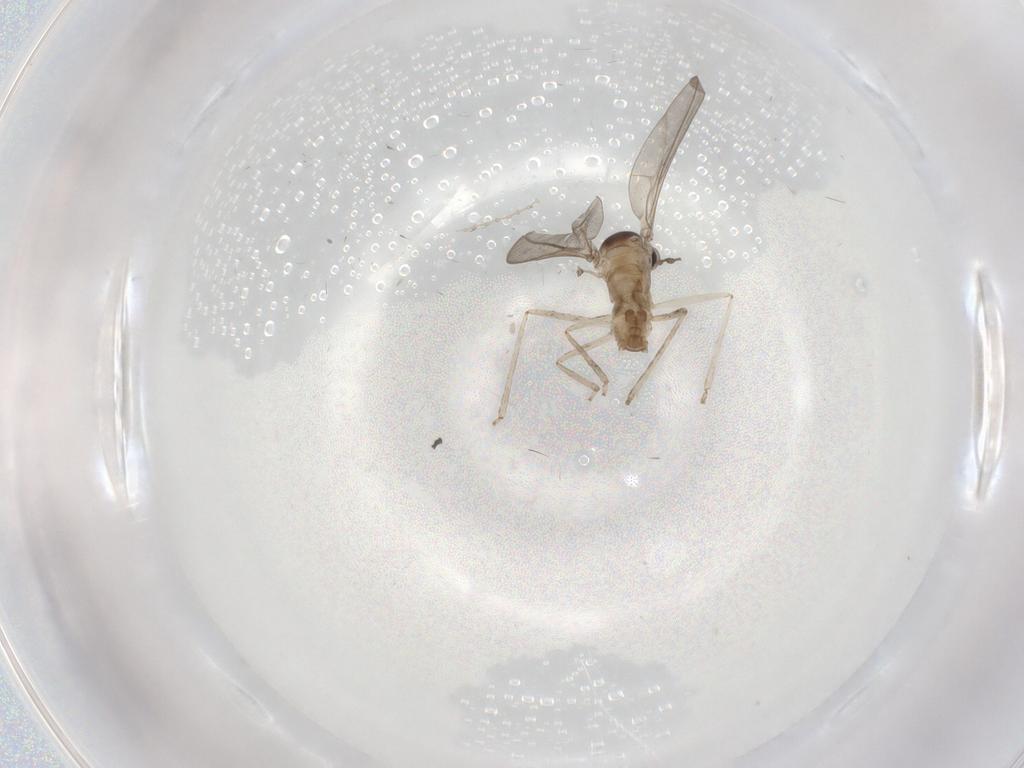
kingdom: Animalia
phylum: Arthropoda
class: Insecta
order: Diptera
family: Cecidomyiidae
